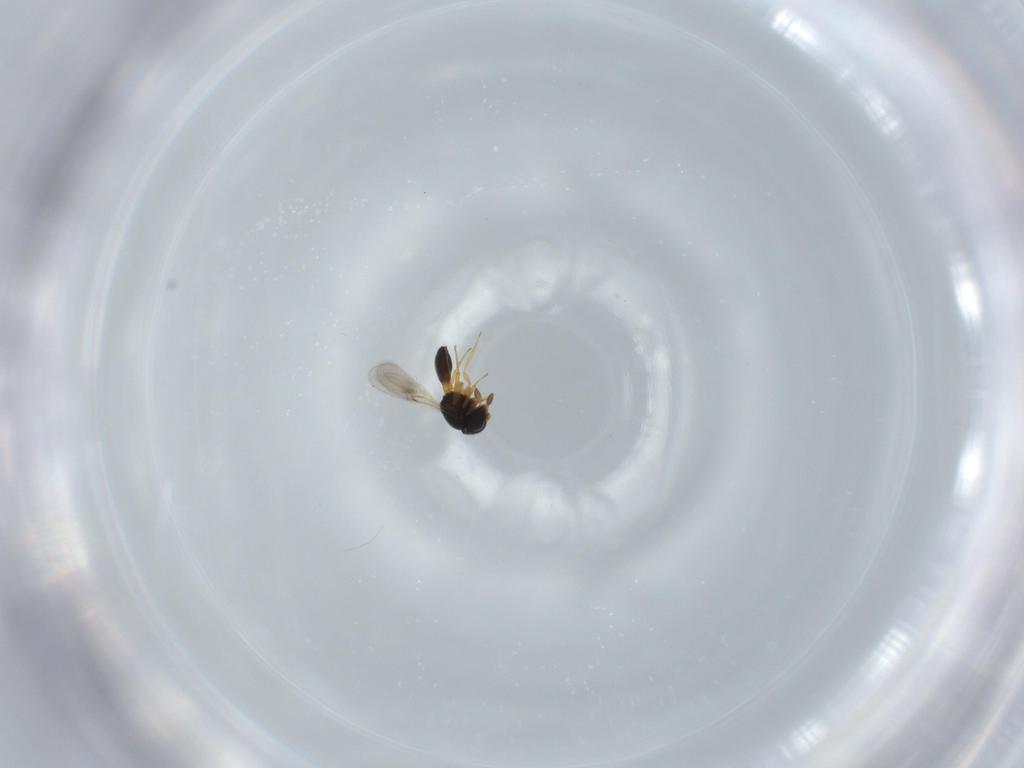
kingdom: Animalia
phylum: Arthropoda
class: Insecta
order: Hymenoptera
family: Scelionidae
